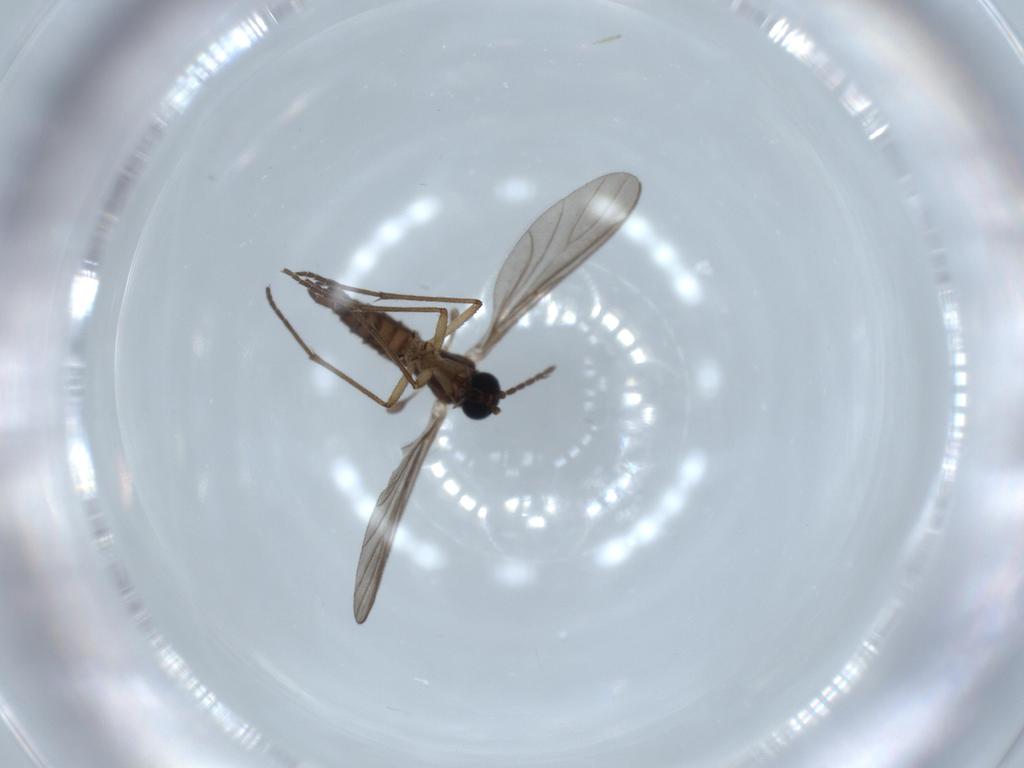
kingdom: Animalia
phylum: Arthropoda
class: Insecta
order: Diptera
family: Sciaridae
